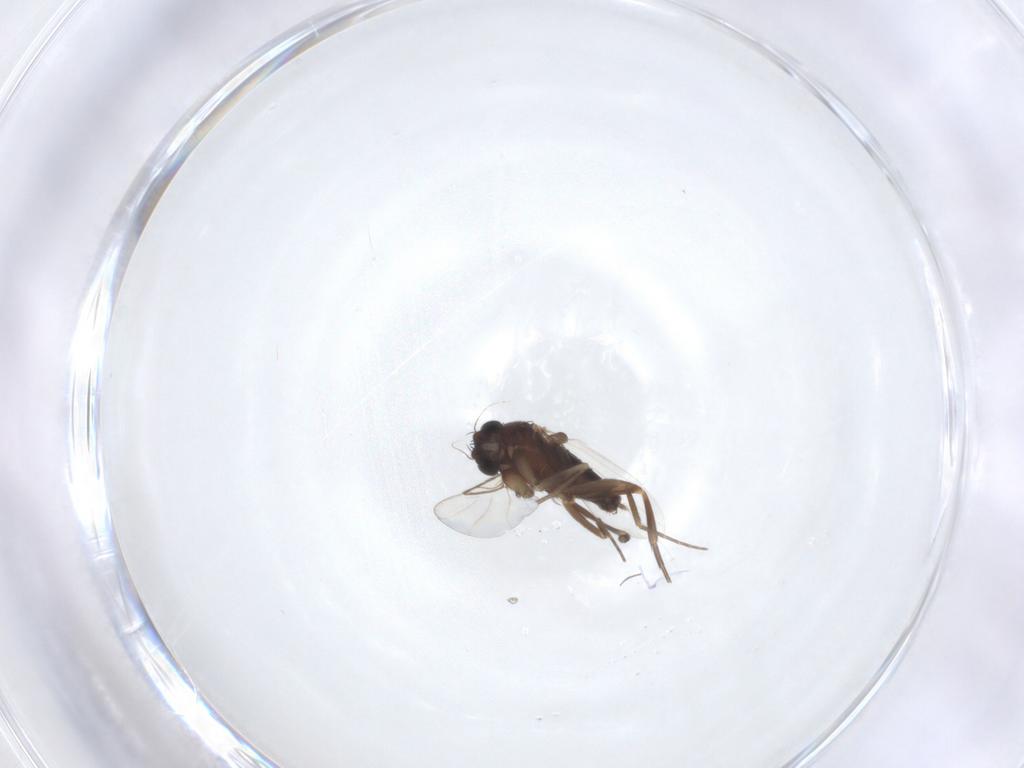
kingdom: Animalia
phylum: Arthropoda
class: Insecta
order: Diptera
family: Phoridae
